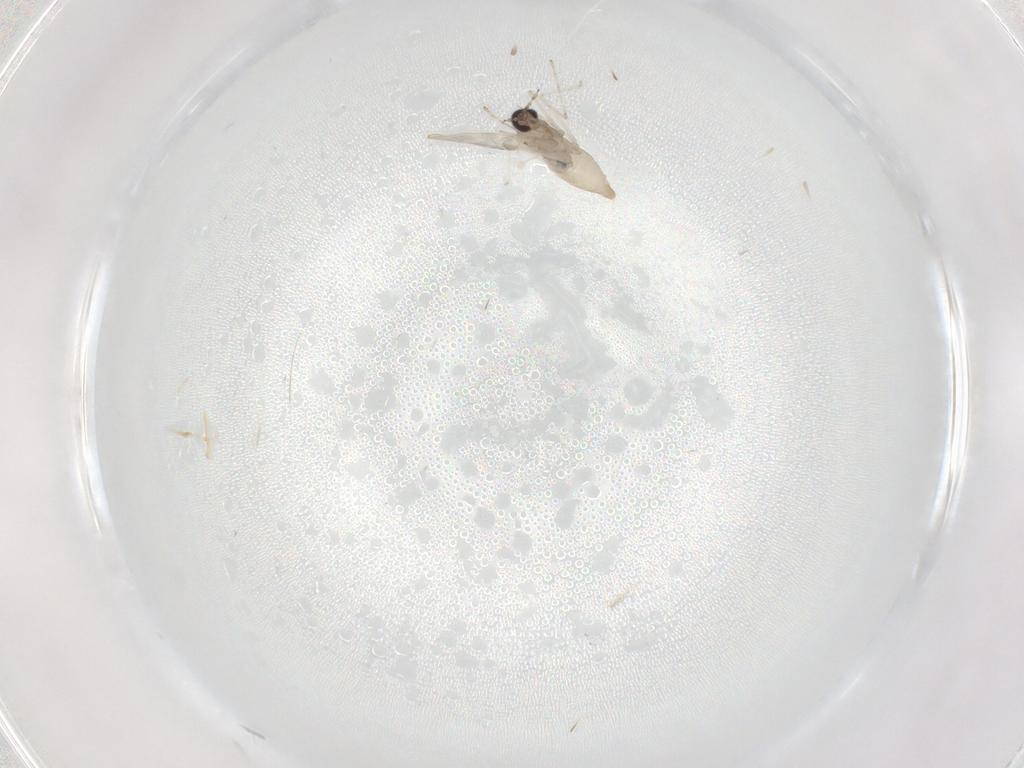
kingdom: Animalia
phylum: Arthropoda
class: Insecta
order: Diptera
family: Cecidomyiidae
